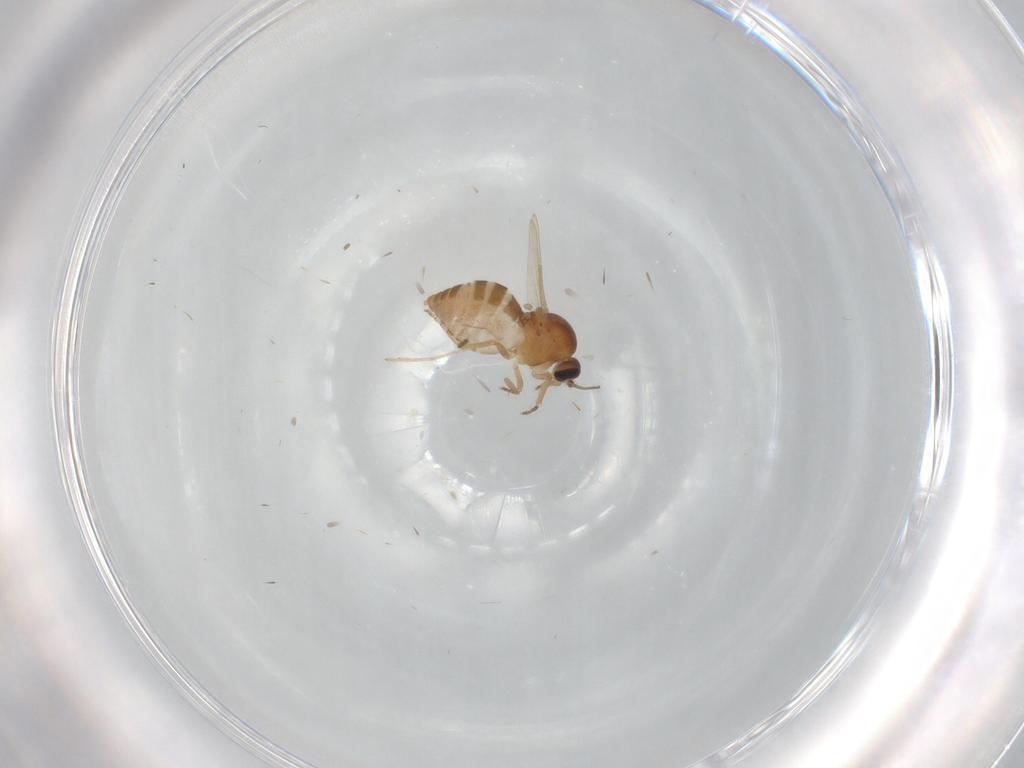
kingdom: Animalia
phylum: Arthropoda
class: Insecta
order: Diptera
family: Ceratopogonidae
